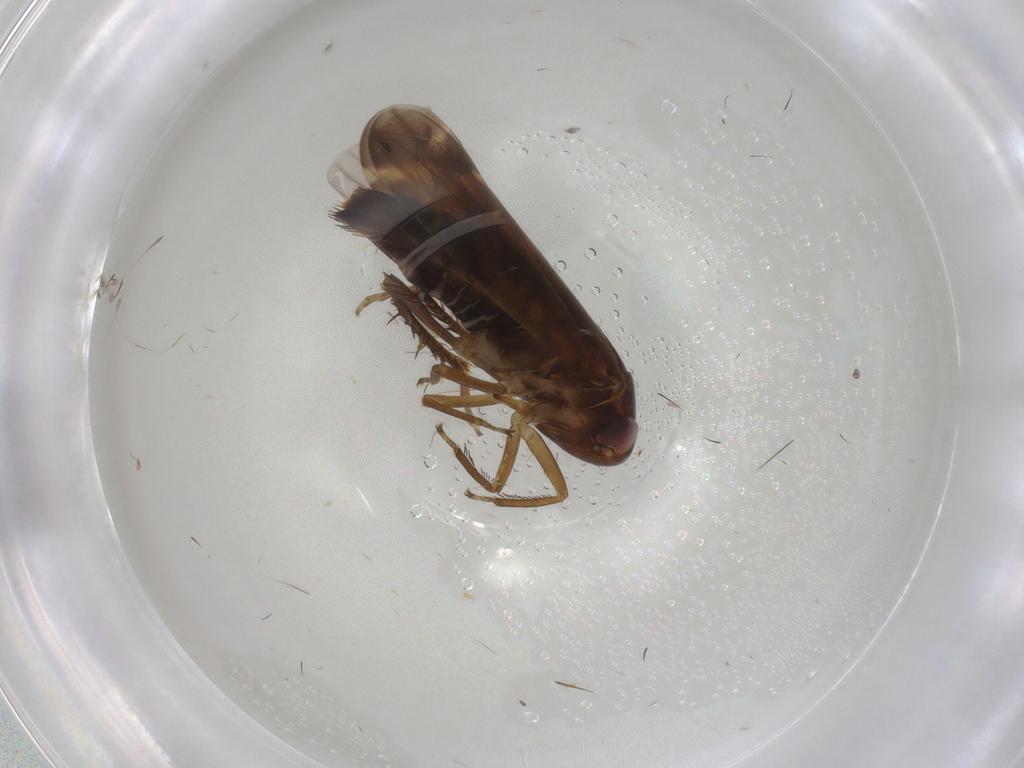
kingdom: Animalia
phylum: Arthropoda
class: Insecta
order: Hemiptera
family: Cicadellidae
